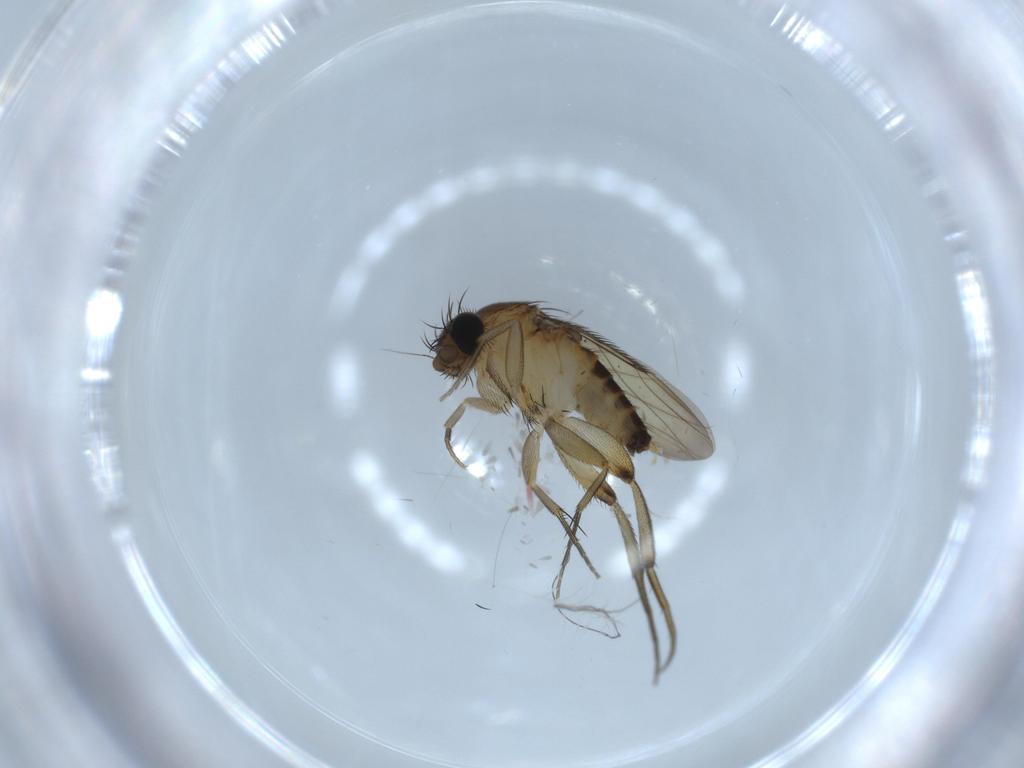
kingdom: Animalia
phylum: Arthropoda
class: Insecta
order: Diptera
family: Phoridae
